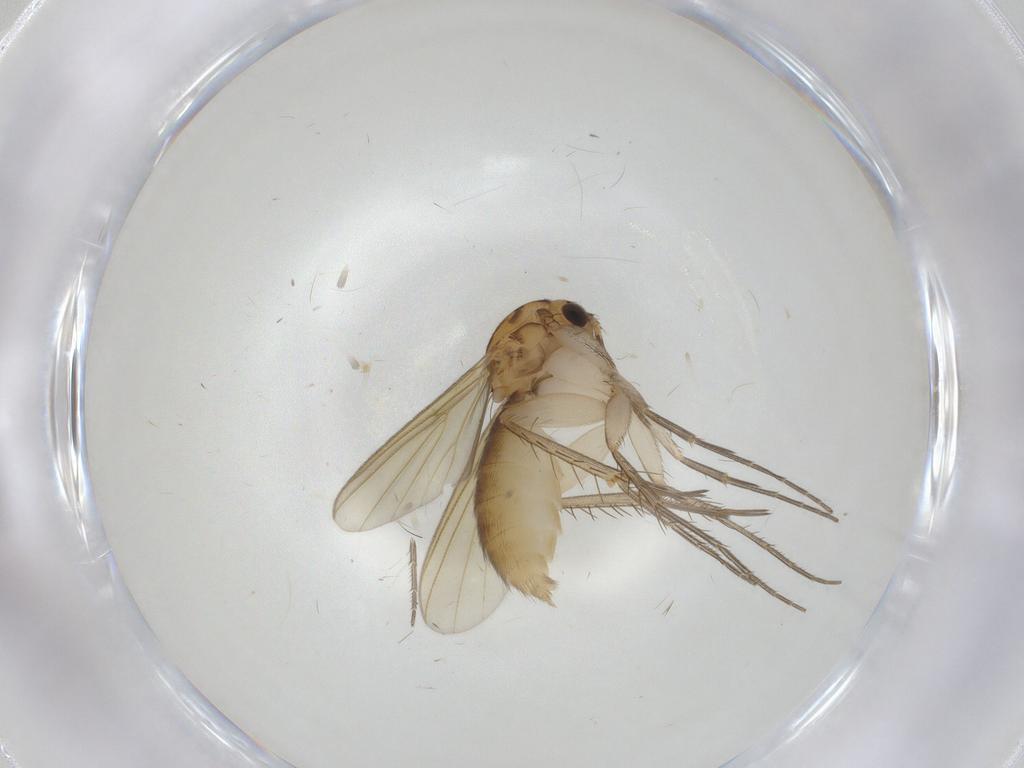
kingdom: Animalia
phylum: Arthropoda
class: Insecta
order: Diptera
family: Mycetophilidae
